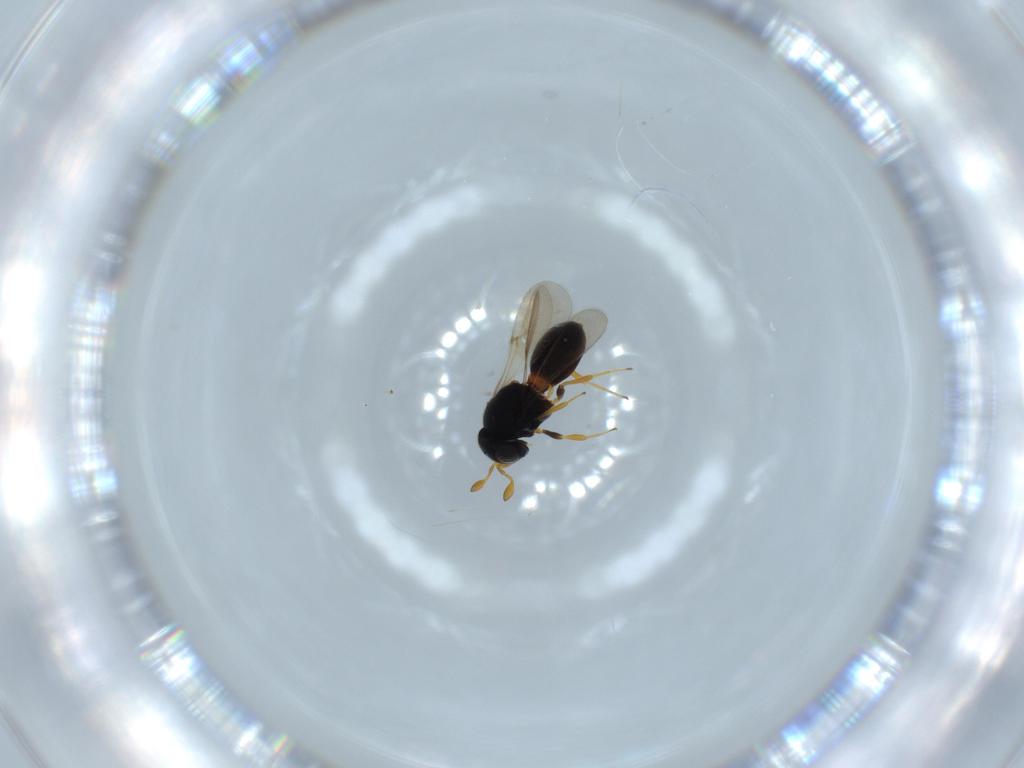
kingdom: Animalia
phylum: Arthropoda
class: Insecta
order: Hymenoptera
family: Scelionidae
